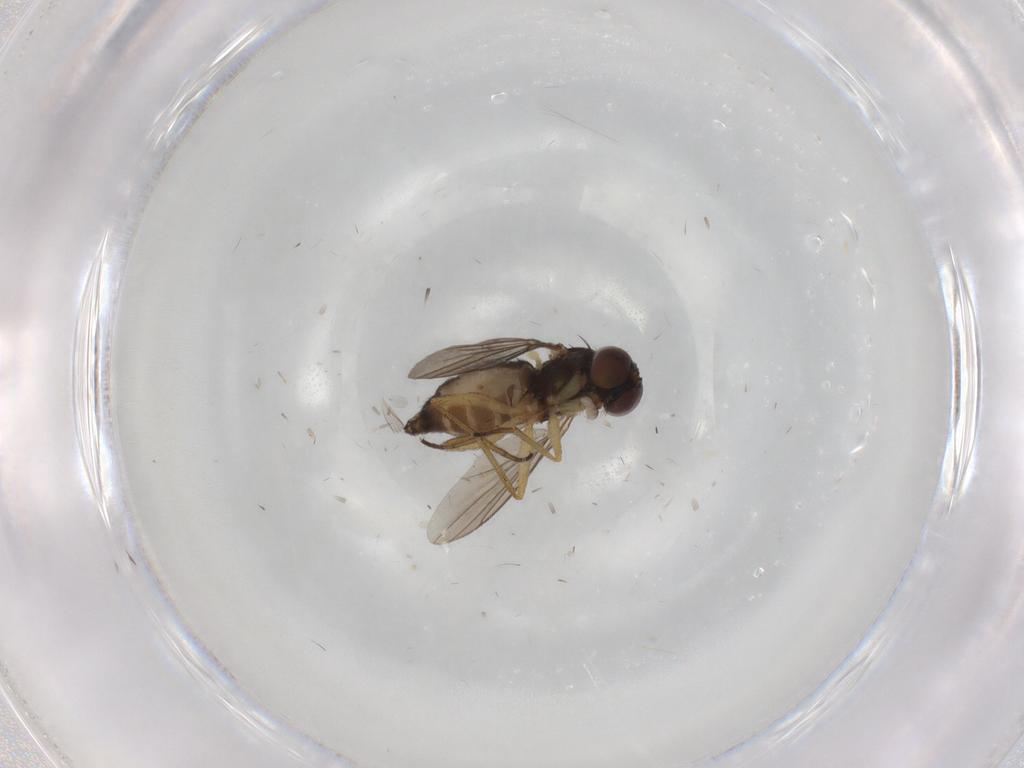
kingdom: Animalia
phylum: Arthropoda
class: Insecta
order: Diptera
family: Dolichopodidae
